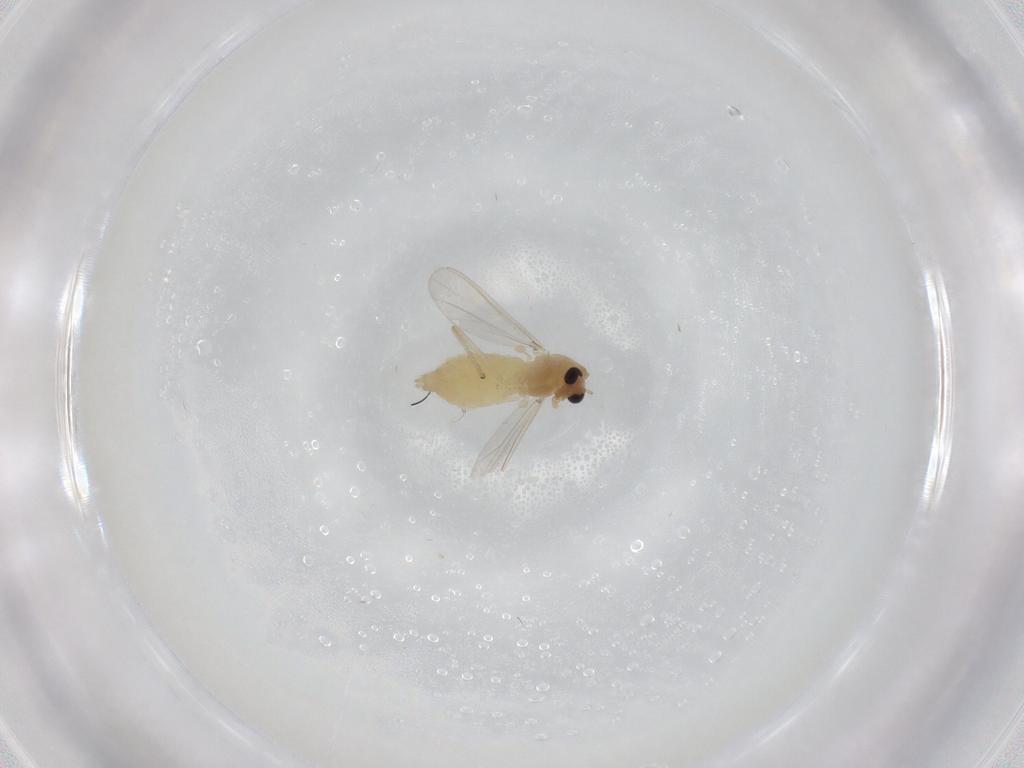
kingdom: Animalia
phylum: Arthropoda
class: Insecta
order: Diptera
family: Chironomidae
